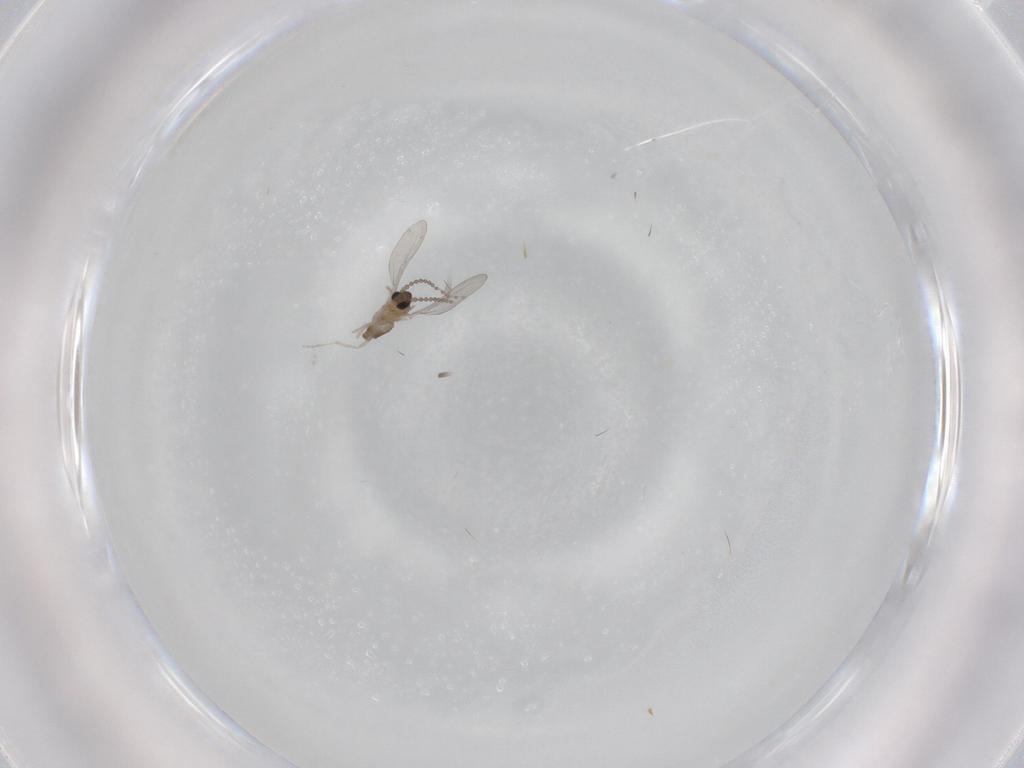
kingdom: Animalia
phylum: Arthropoda
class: Insecta
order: Diptera
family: Cecidomyiidae
